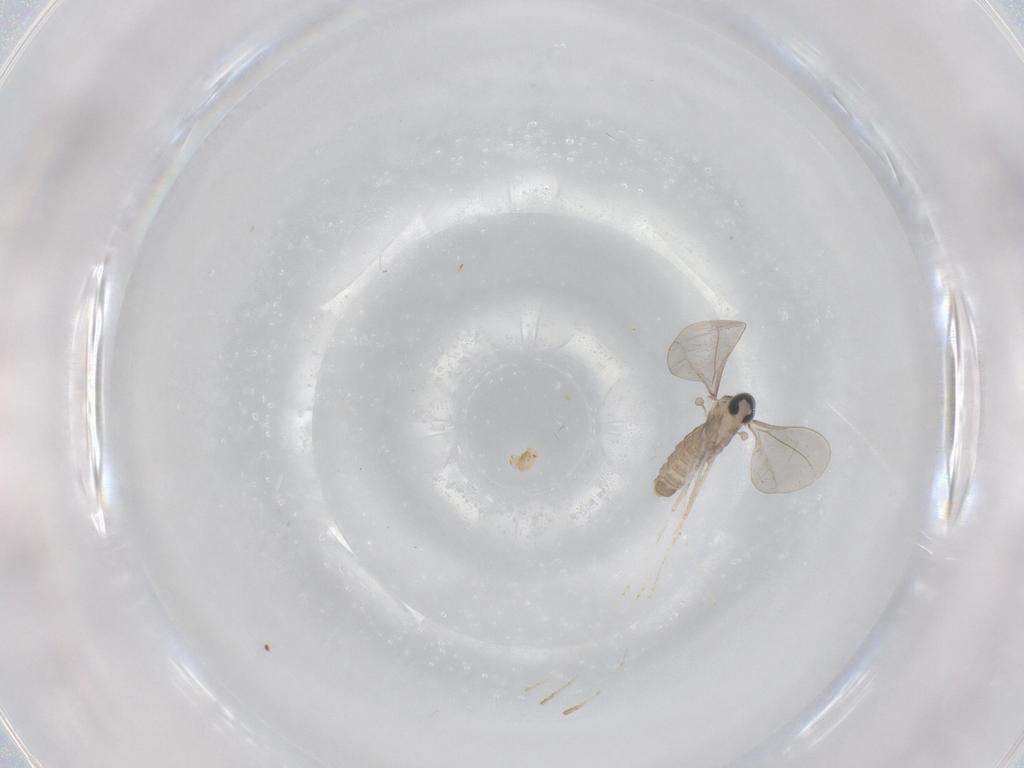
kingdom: Animalia
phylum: Arthropoda
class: Insecta
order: Diptera
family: Cecidomyiidae
